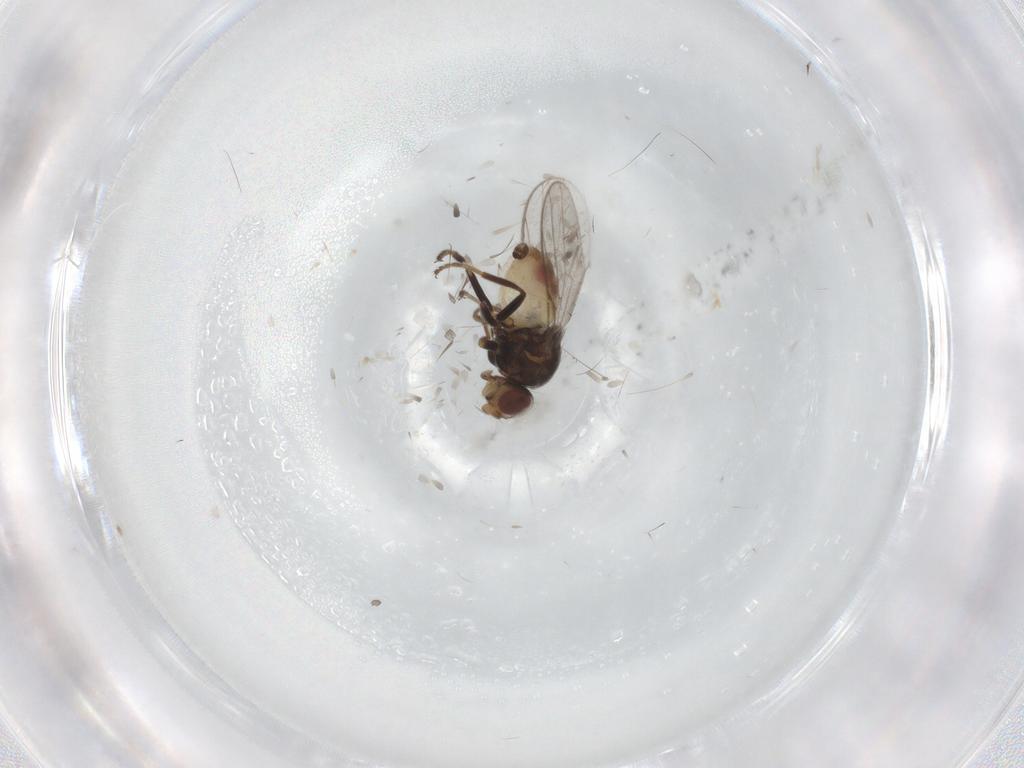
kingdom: Animalia
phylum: Arthropoda
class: Insecta
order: Diptera
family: Chloropidae
